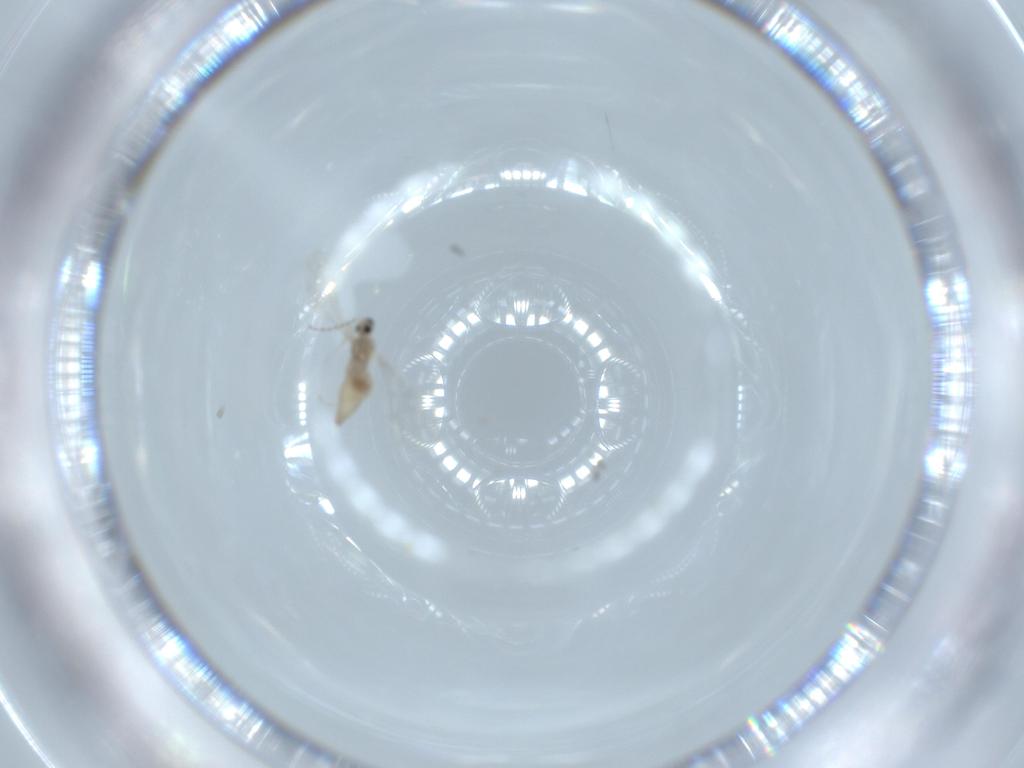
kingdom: Animalia
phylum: Arthropoda
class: Insecta
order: Diptera
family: Cecidomyiidae
